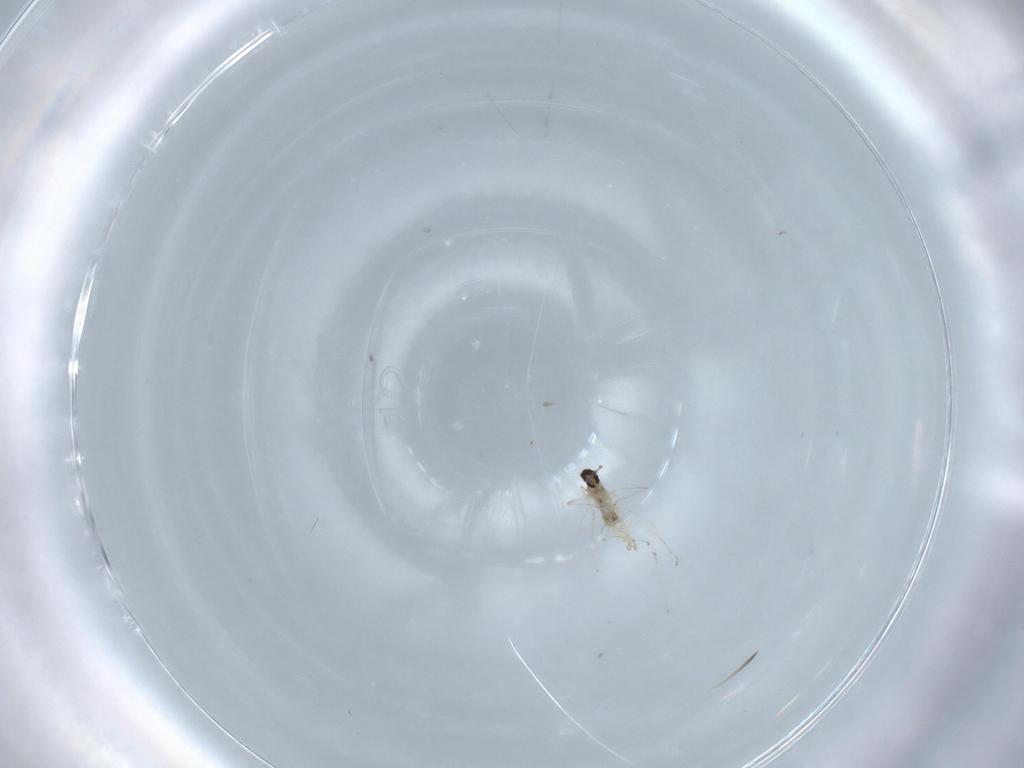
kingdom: Animalia
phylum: Arthropoda
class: Insecta
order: Diptera
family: Cecidomyiidae
